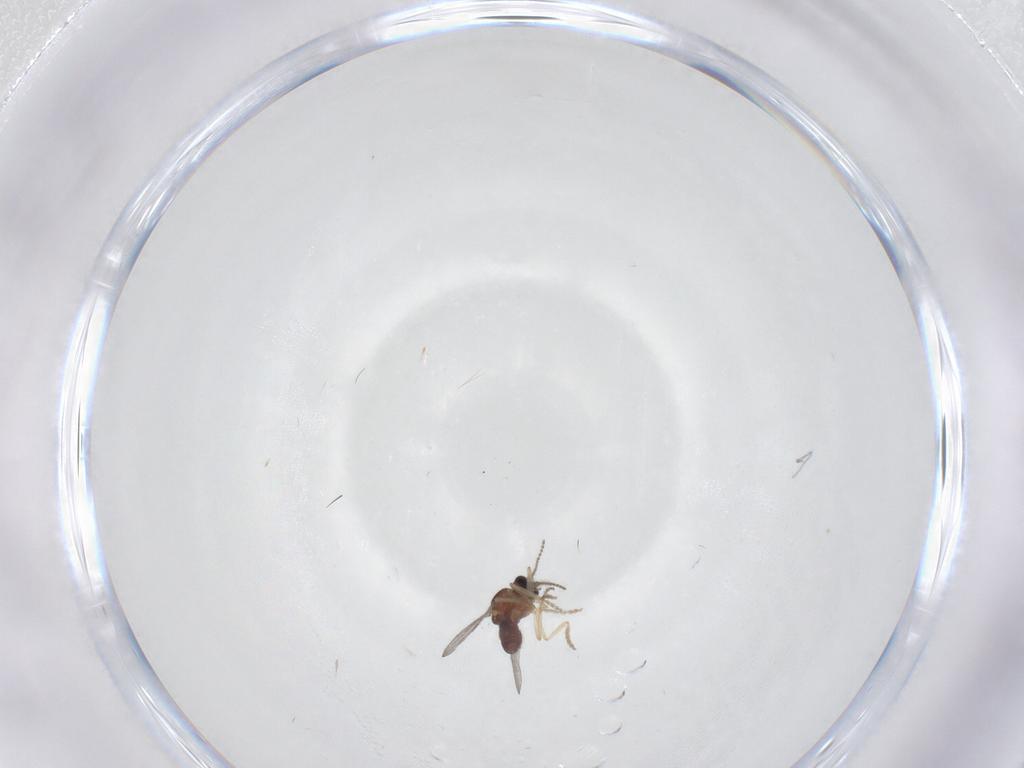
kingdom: Animalia
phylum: Arthropoda
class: Insecta
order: Diptera
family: Ceratopogonidae
